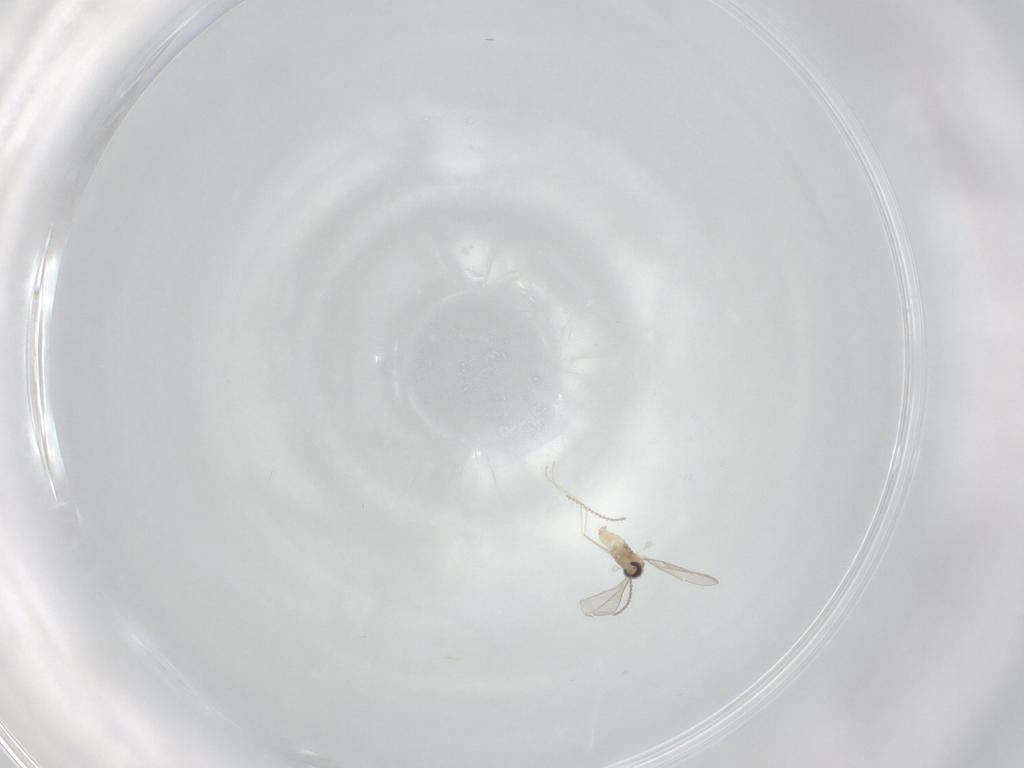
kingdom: Animalia
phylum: Arthropoda
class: Insecta
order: Diptera
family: Cecidomyiidae
